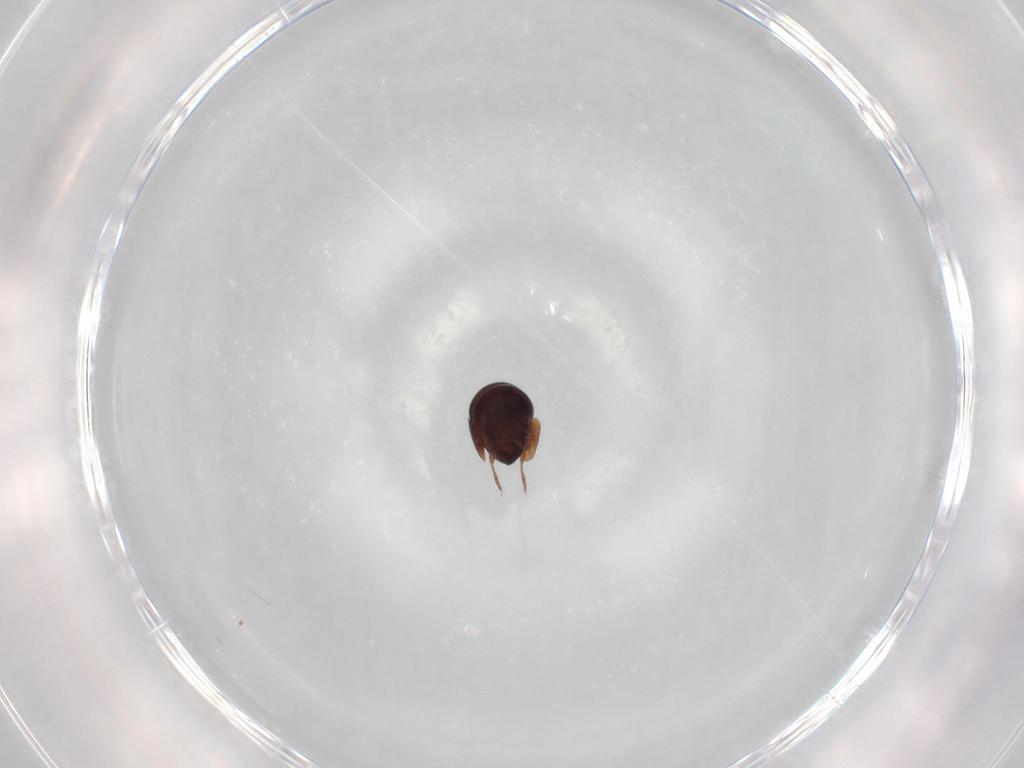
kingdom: Animalia
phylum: Arthropoda
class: Arachnida
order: Sarcoptiformes
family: Galumnidae
